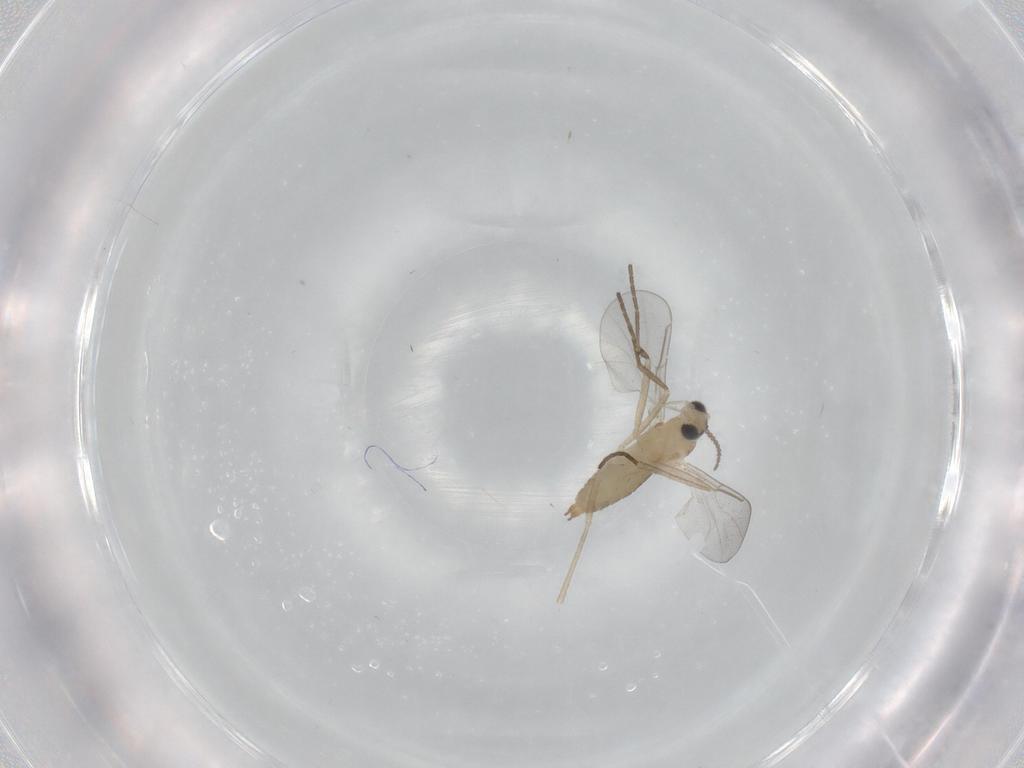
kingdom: Animalia
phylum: Arthropoda
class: Insecta
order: Diptera
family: Cecidomyiidae
